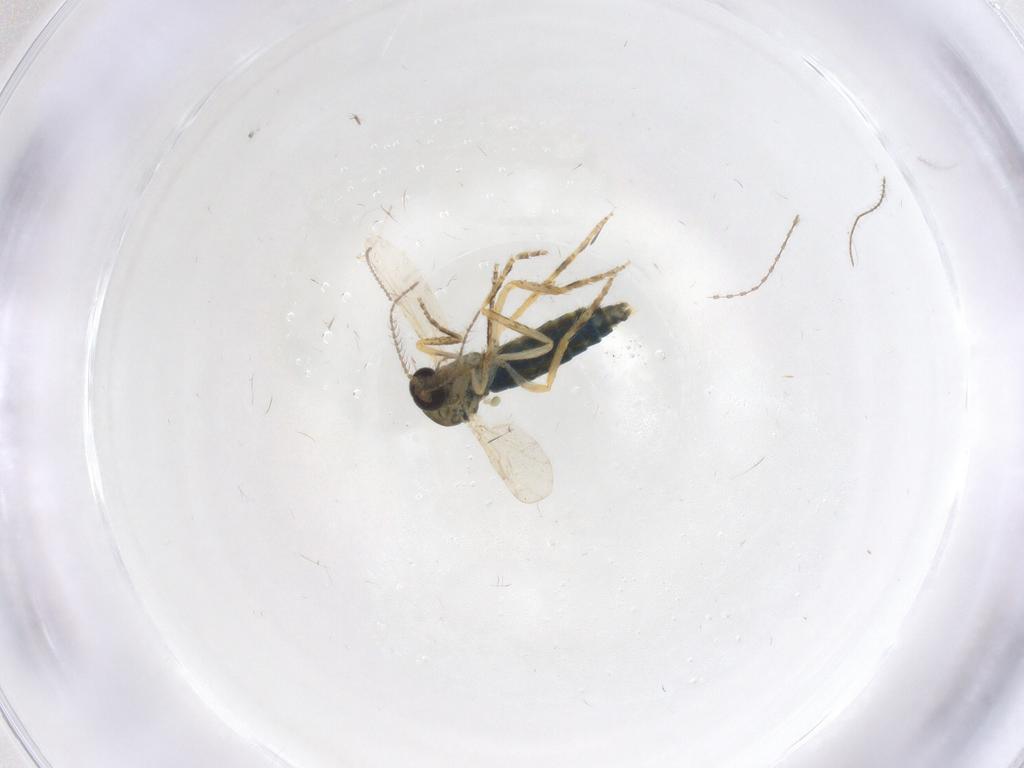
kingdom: Animalia
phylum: Arthropoda
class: Insecta
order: Diptera
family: Ceratopogonidae
